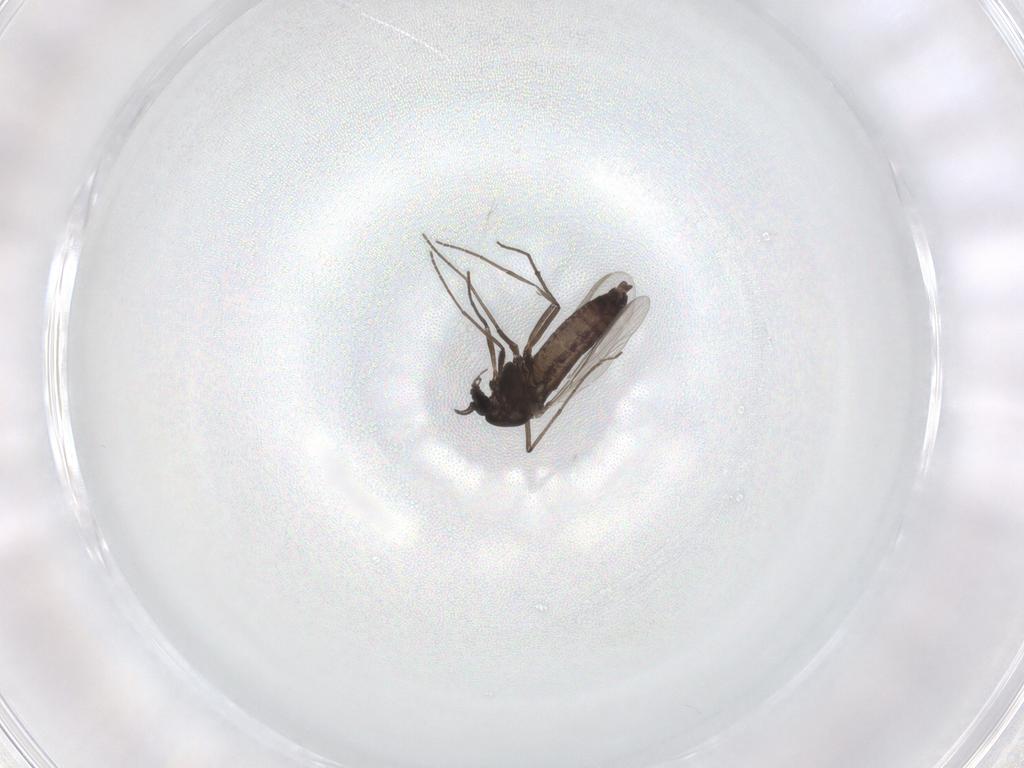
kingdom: Animalia
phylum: Arthropoda
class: Insecta
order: Diptera
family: Chironomidae
